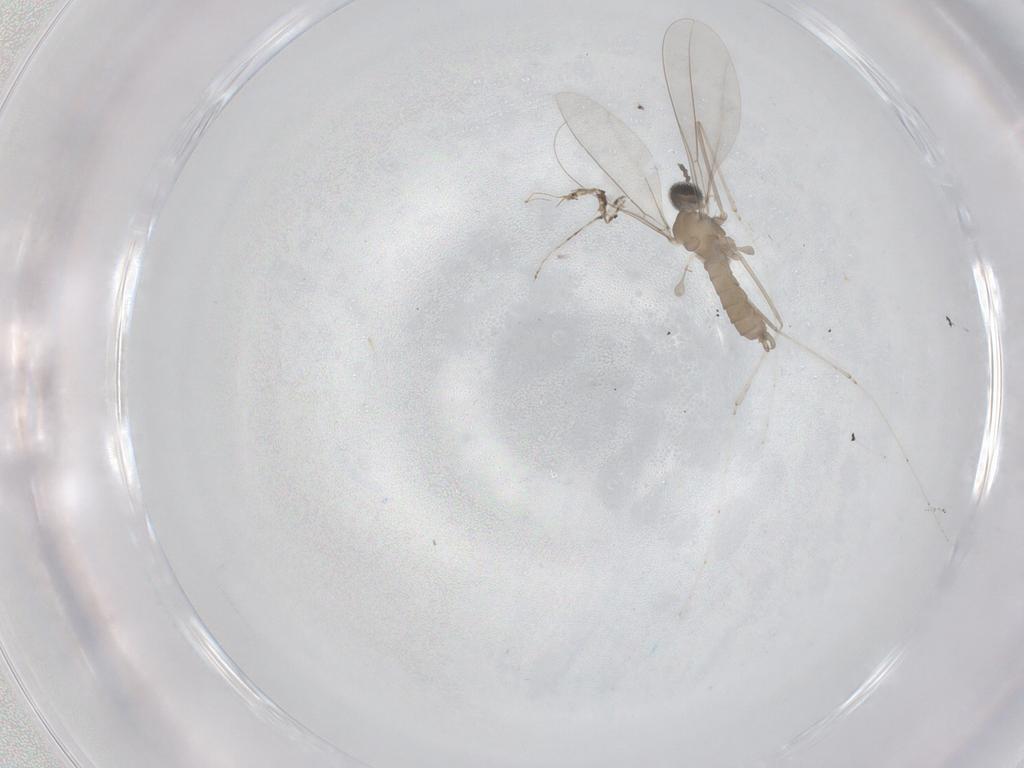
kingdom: Animalia
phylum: Arthropoda
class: Insecta
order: Diptera
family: Cecidomyiidae
